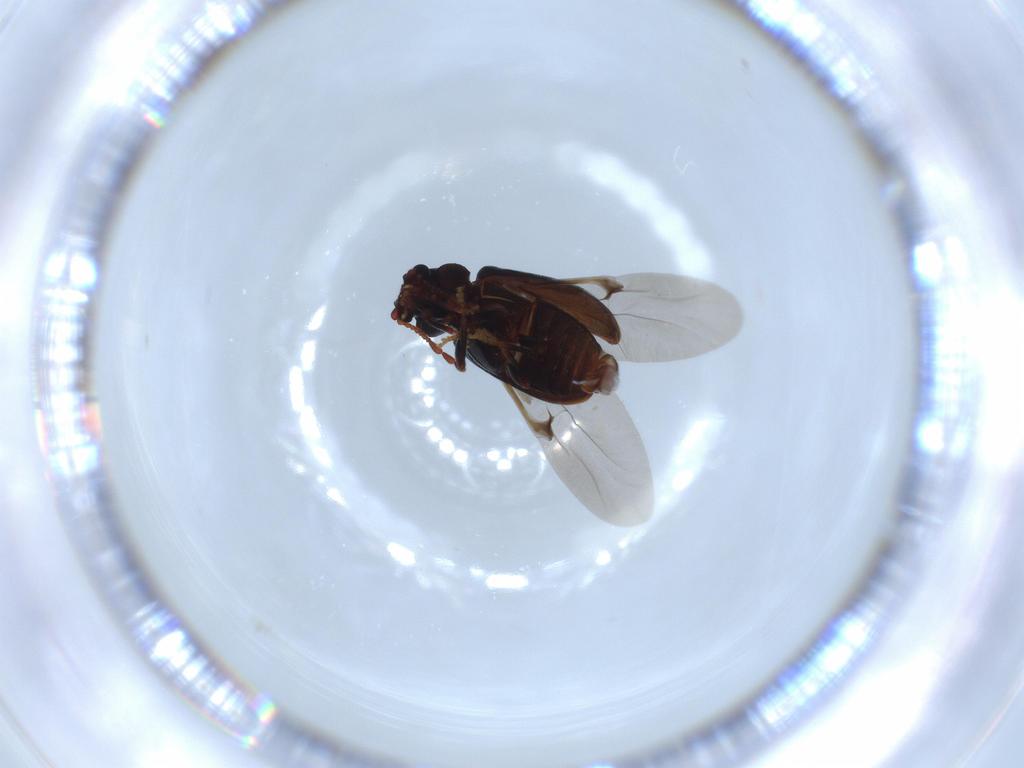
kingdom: Animalia
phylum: Arthropoda
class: Insecta
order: Coleoptera
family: Ptinidae
